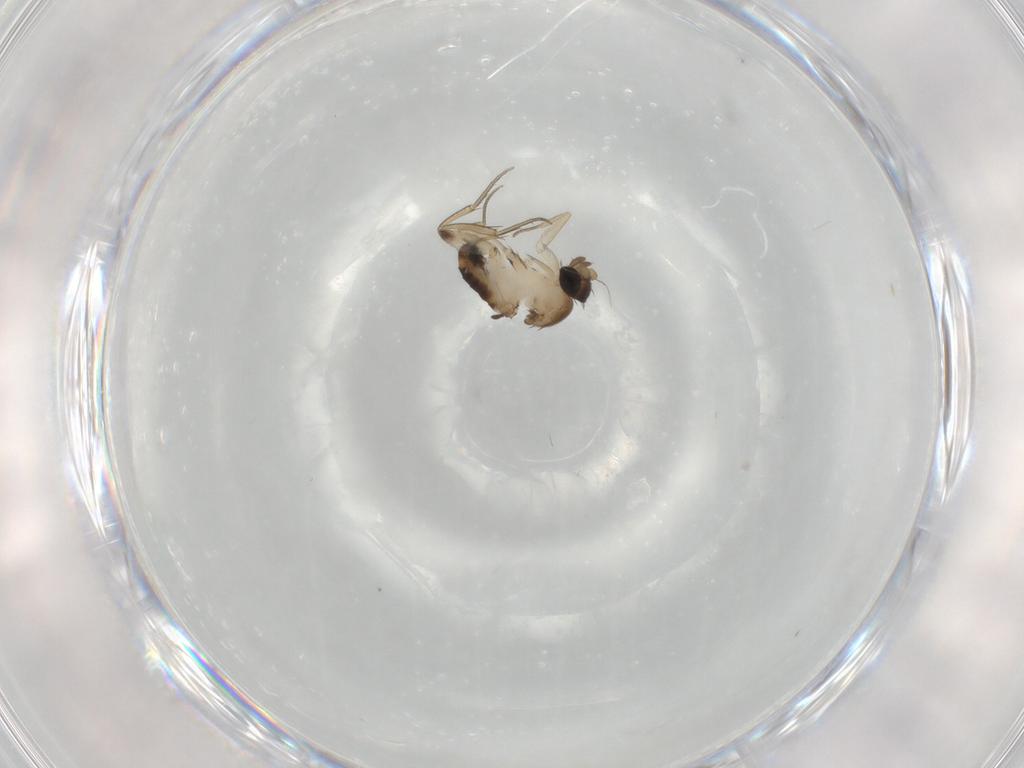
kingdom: Animalia
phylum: Arthropoda
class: Insecta
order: Diptera
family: Phoridae
